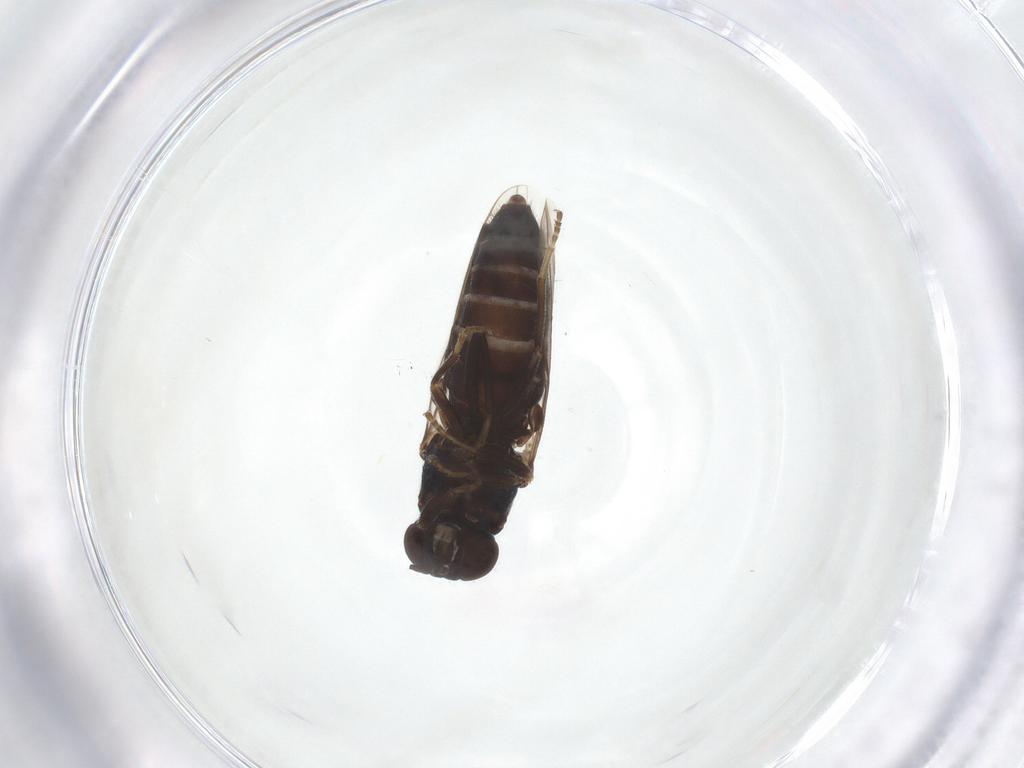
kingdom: Animalia
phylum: Arthropoda
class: Insecta
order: Diptera
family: Scenopinidae
